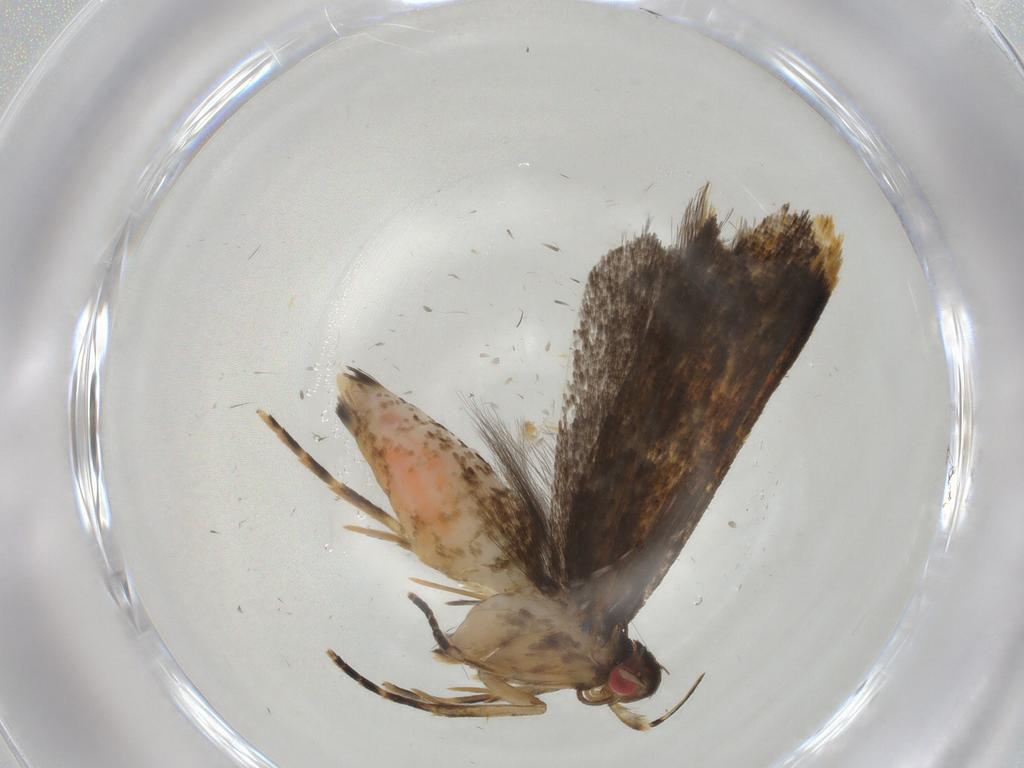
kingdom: Animalia
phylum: Arthropoda
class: Insecta
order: Lepidoptera
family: Gelechiidae
